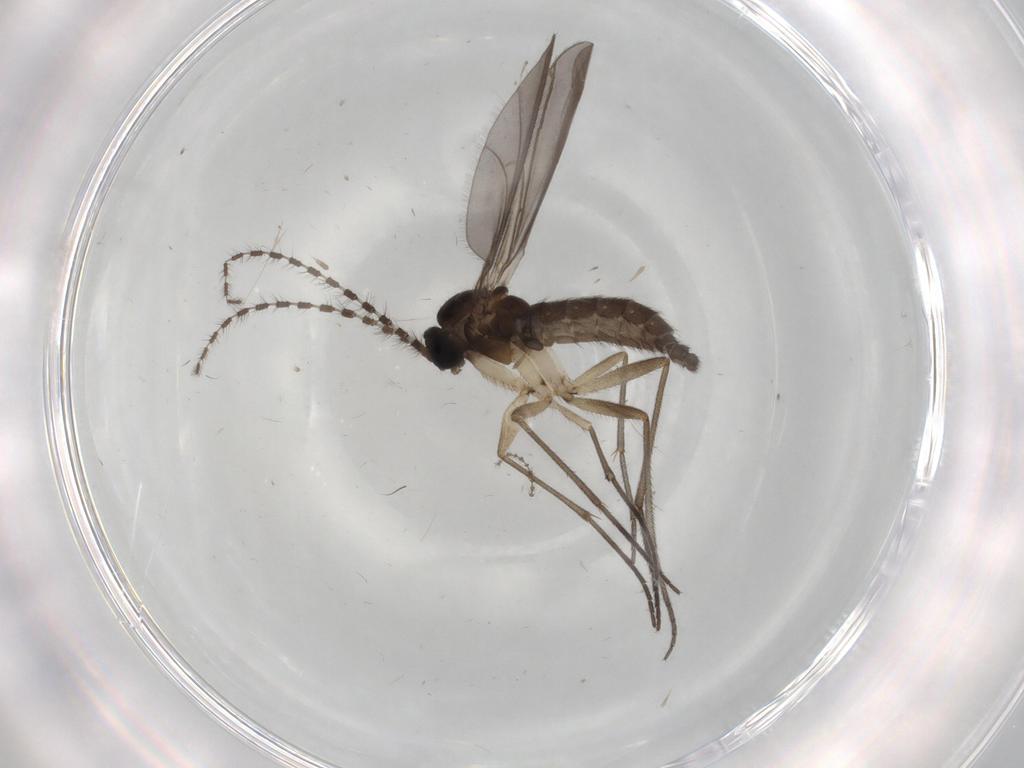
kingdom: Animalia
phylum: Arthropoda
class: Insecta
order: Diptera
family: Sciaridae
